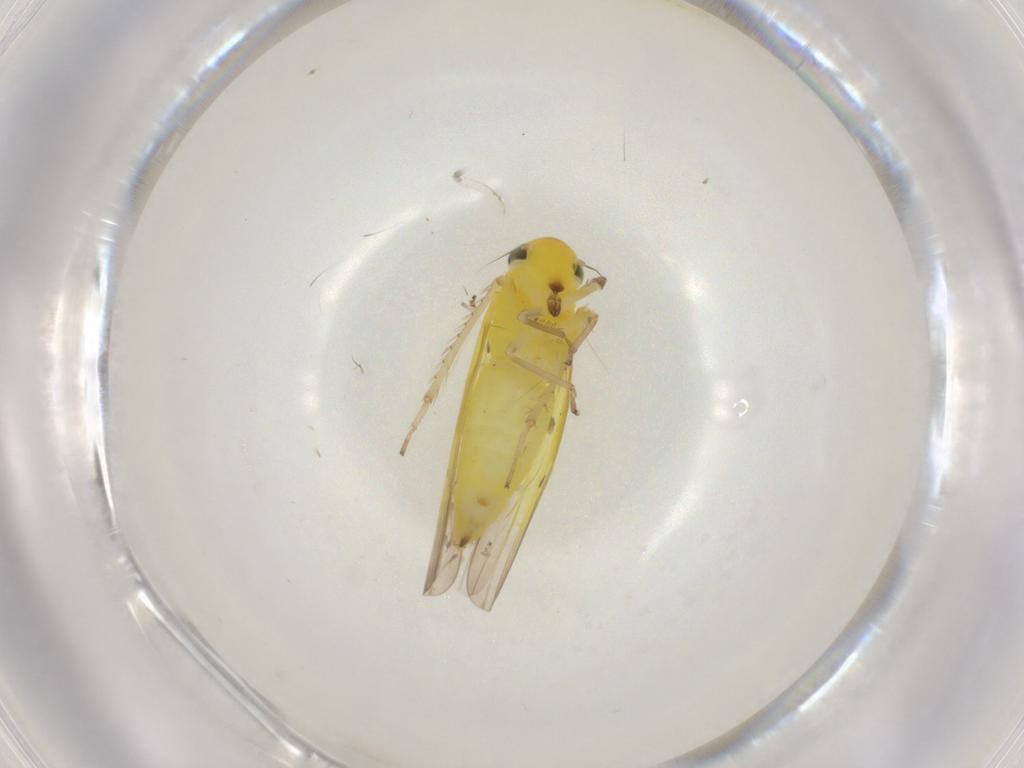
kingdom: Animalia
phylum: Arthropoda
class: Insecta
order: Hemiptera
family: Cicadellidae
